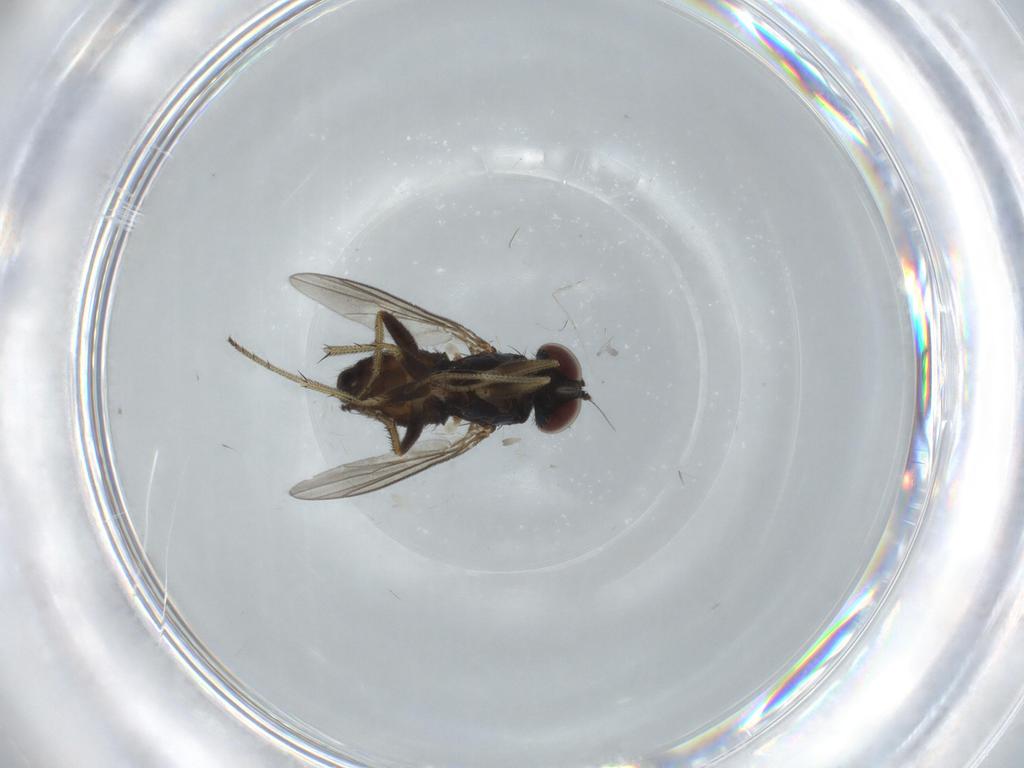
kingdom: Animalia
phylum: Arthropoda
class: Insecta
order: Diptera
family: Dolichopodidae
